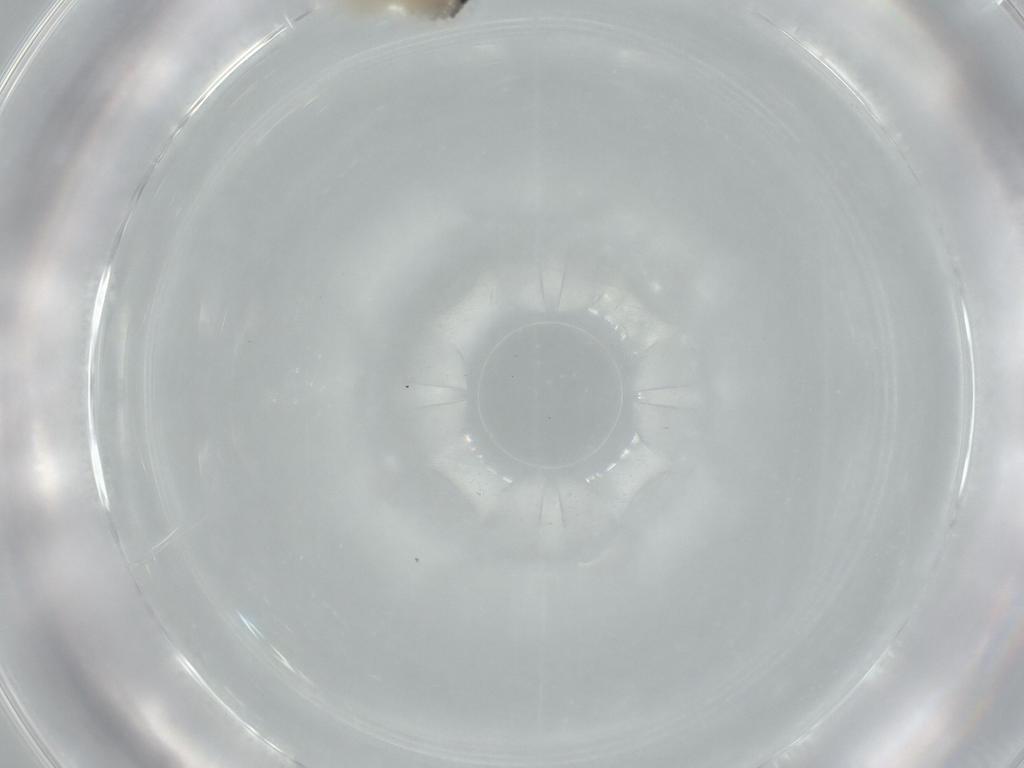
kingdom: Animalia
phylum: Arthropoda
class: Insecta
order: Diptera
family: Cecidomyiidae
